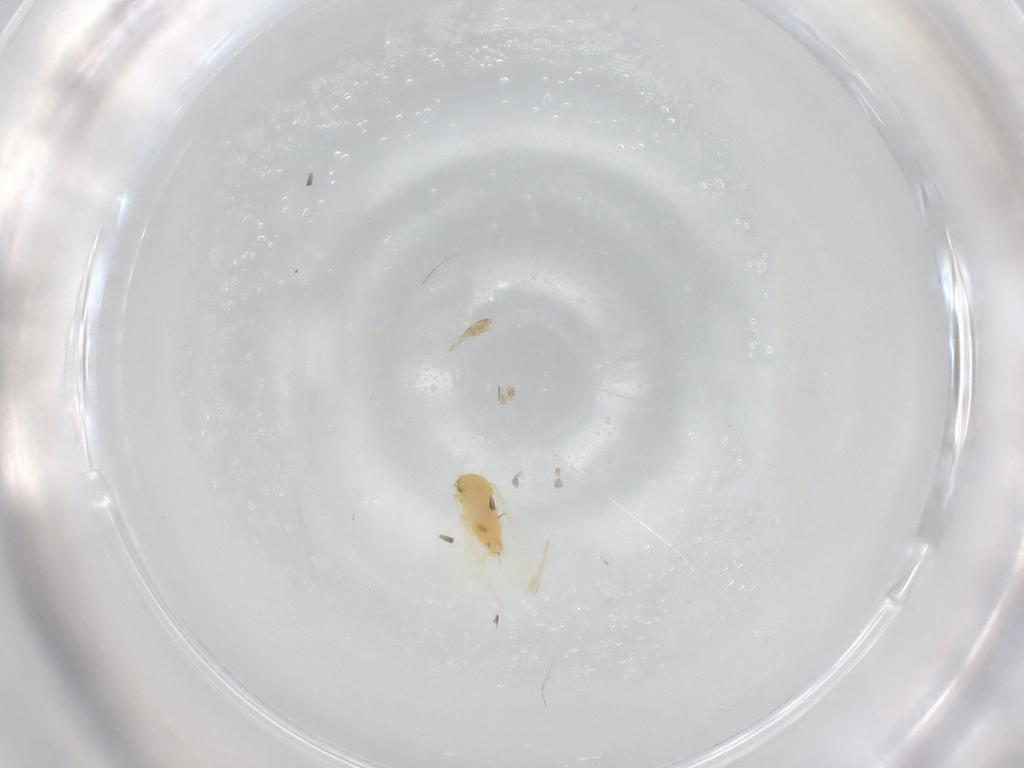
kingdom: Animalia
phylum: Arthropoda
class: Insecta
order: Hemiptera
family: Aleyrodidae
